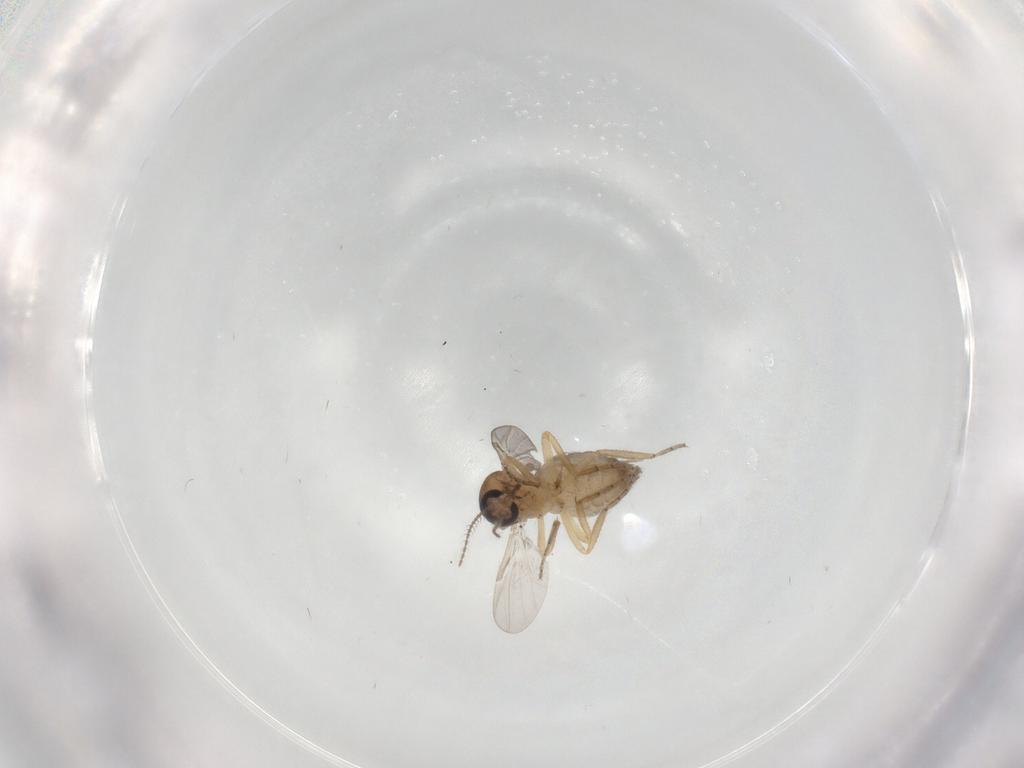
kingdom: Animalia
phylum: Arthropoda
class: Insecta
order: Diptera
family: Chironomidae
